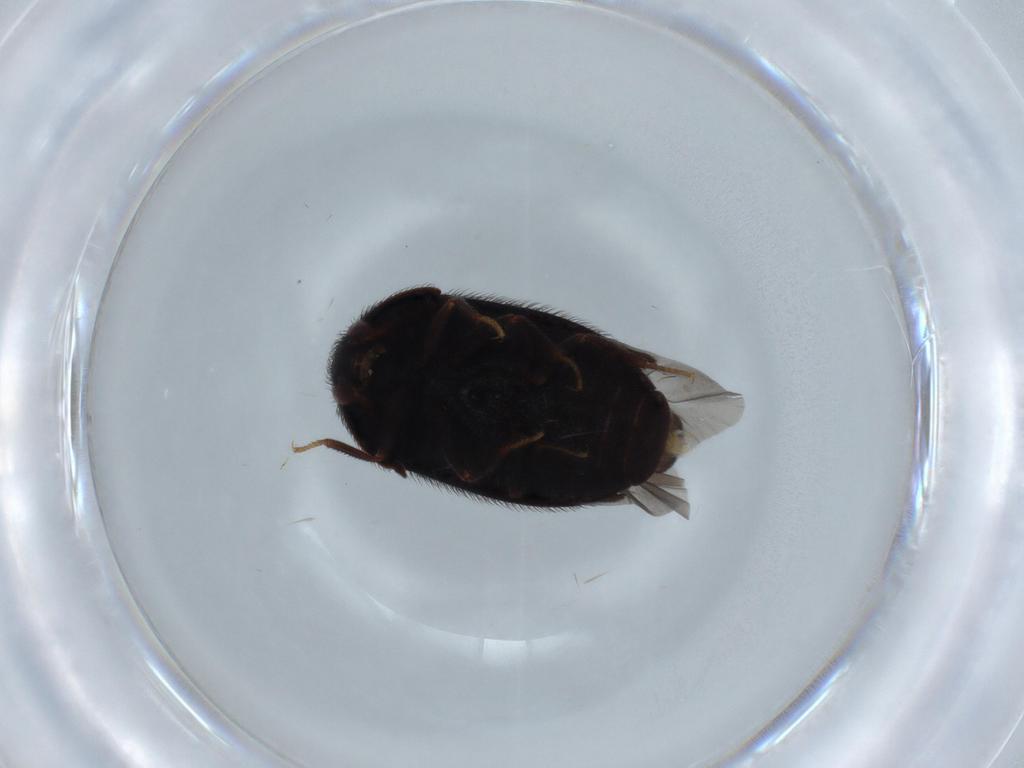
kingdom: Animalia
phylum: Arthropoda
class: Insecta
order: Coleoptera
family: Dermestidae
